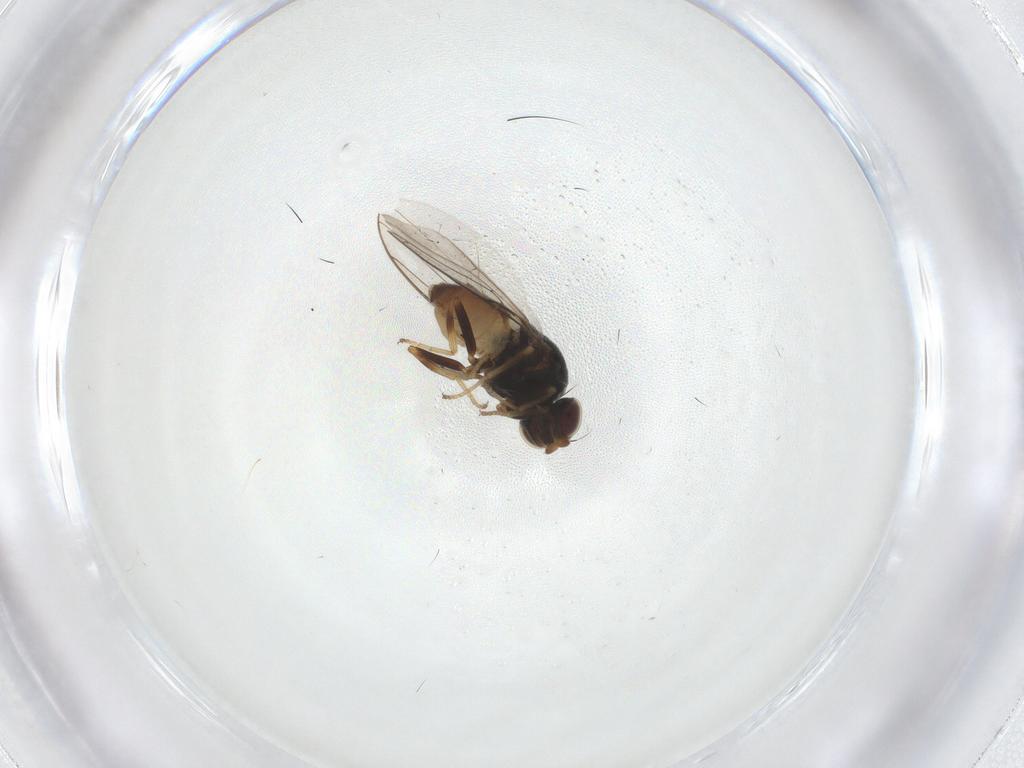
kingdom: Animalia
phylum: Arthropoda
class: Insecta
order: Diptera
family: Chloropidae
